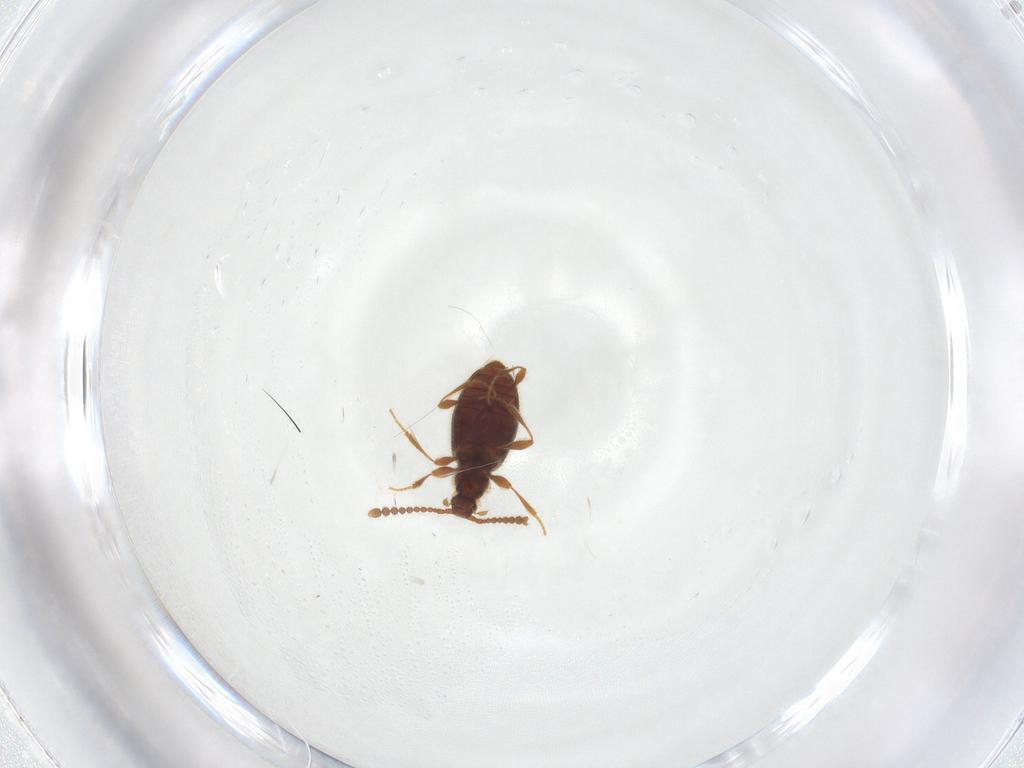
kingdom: Animalia
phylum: Arthropoda
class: Insecta
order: Coleoptera
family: Staphylinidae
